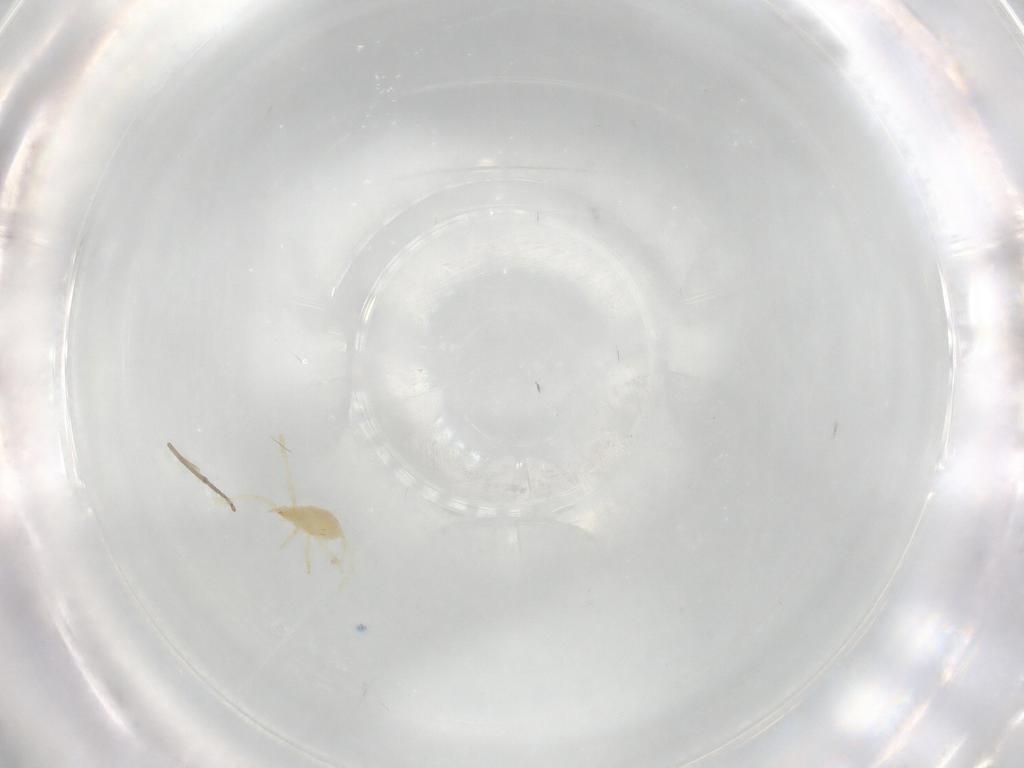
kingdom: Animalia
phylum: Arthropoda
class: Arachnida
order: Trombidiformes
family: Erythraeidae
